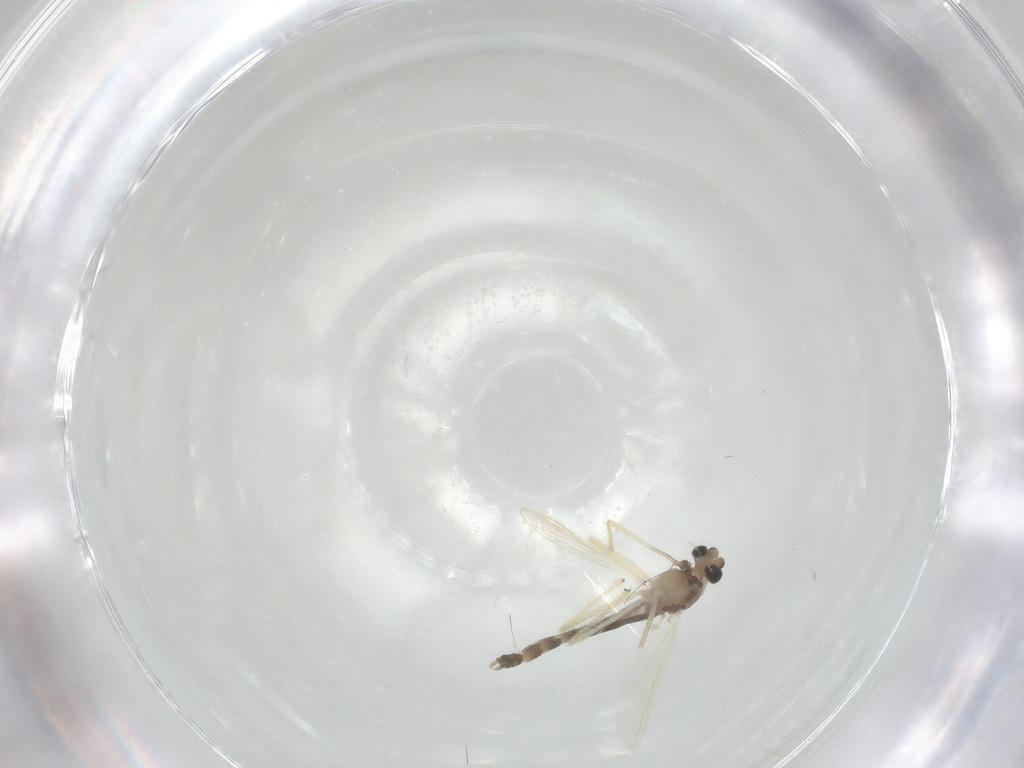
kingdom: Animalia
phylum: Arthropoda
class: Insecta
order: Diptera
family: Chironomidae
